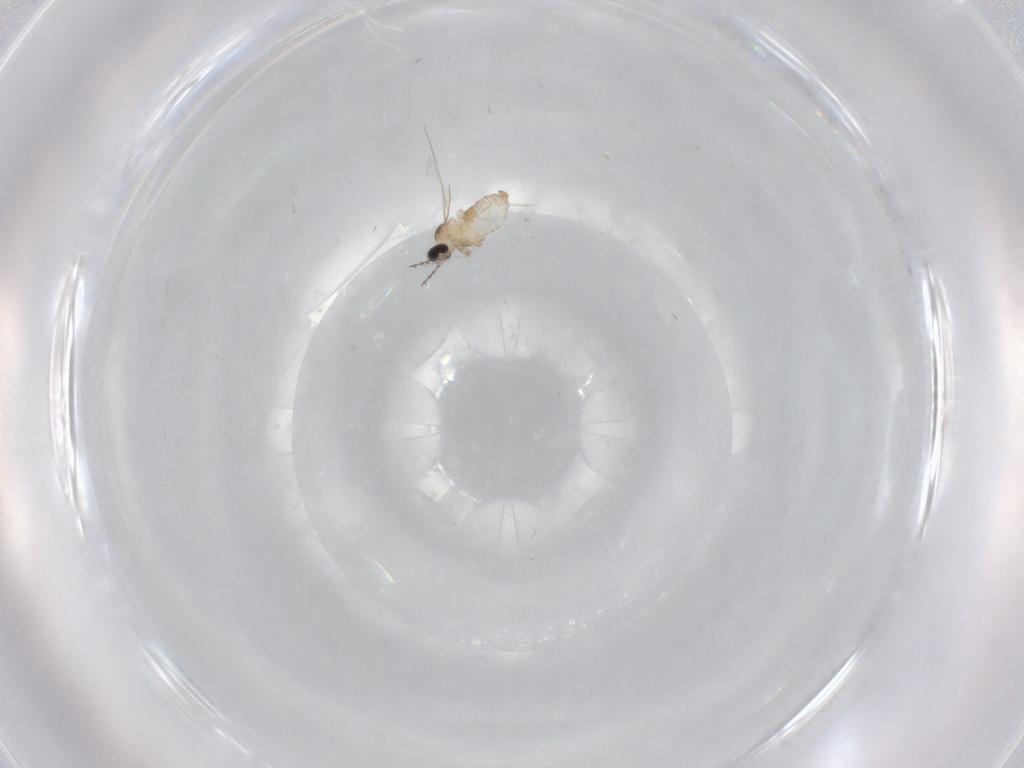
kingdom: Animalia
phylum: Arthropoda
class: Insecta
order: Diptera
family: Cecidomyiidae
